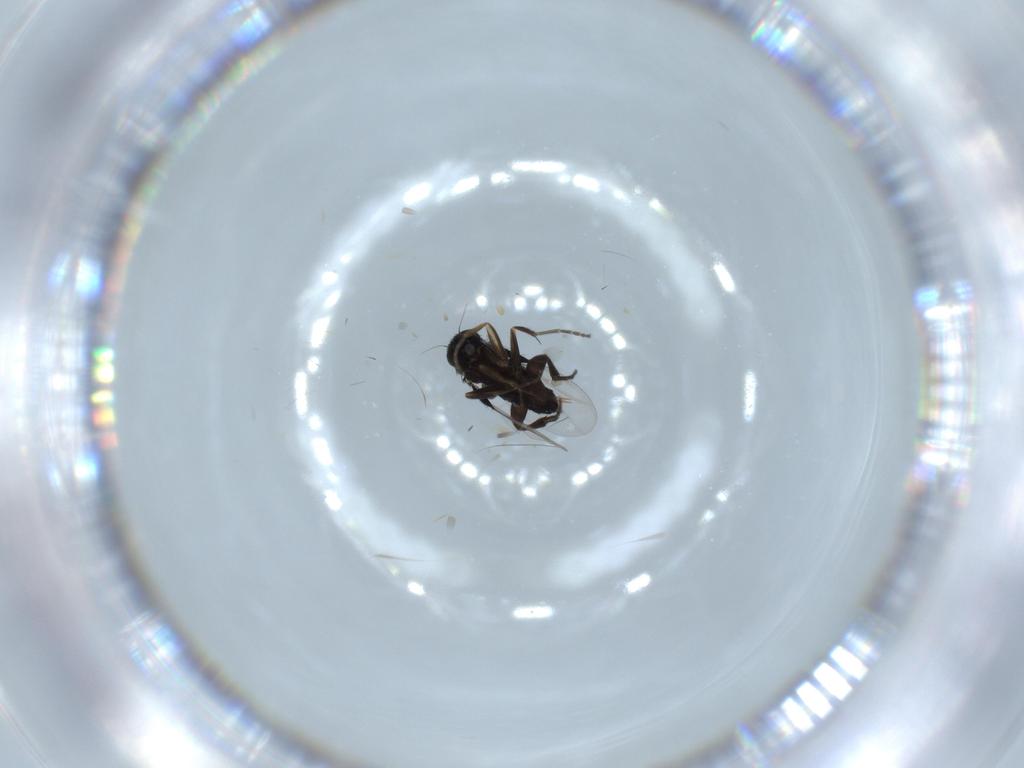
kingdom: Animalia
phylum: Arthropoda
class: Insecta
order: Diptera
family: Phoridae
